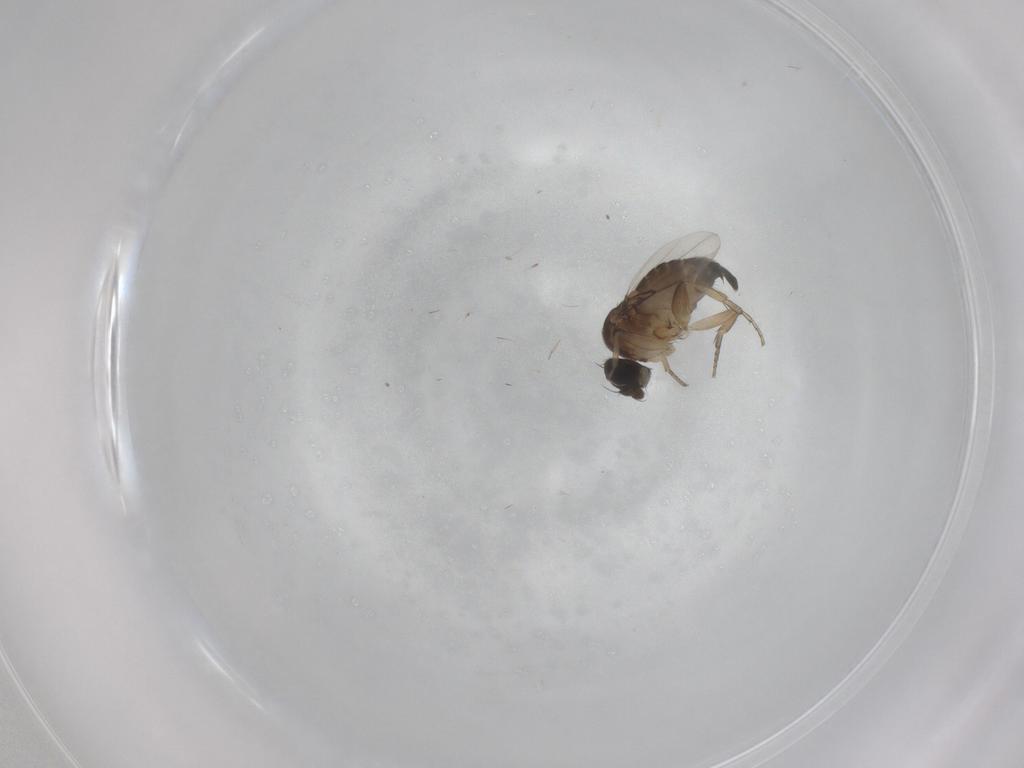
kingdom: Animalia
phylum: Arthropoda
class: Insecta
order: Diptera
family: Phoridae
